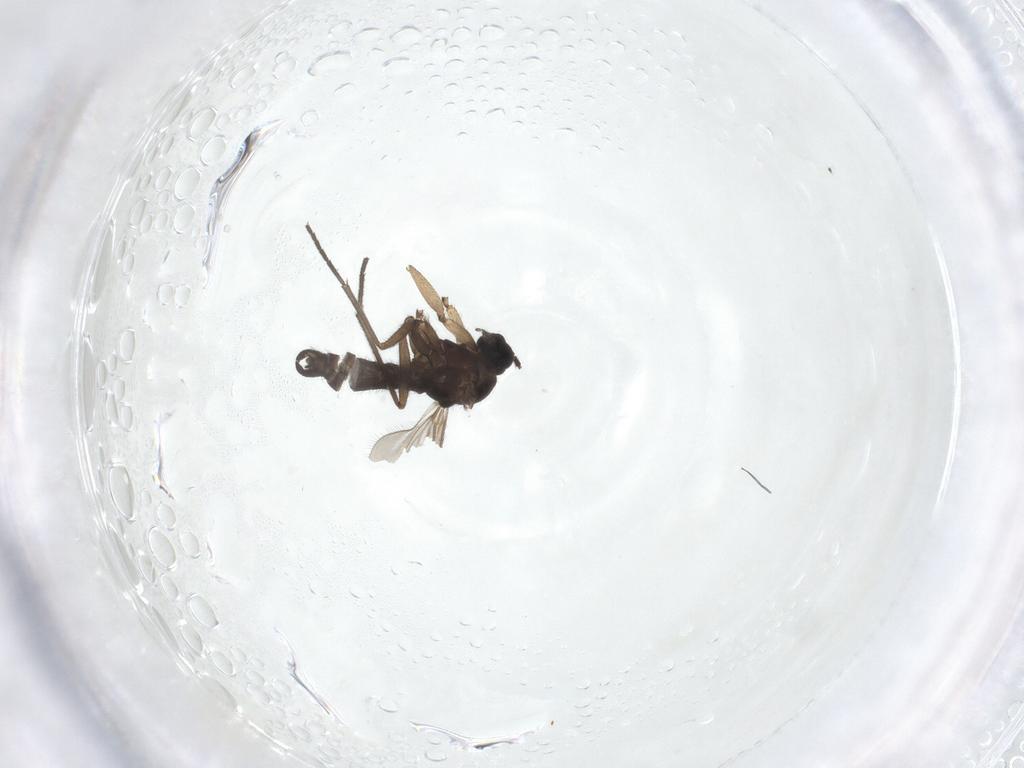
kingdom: Animalia
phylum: Arthropoda
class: Insecta
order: Diptera
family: Sciaridae
